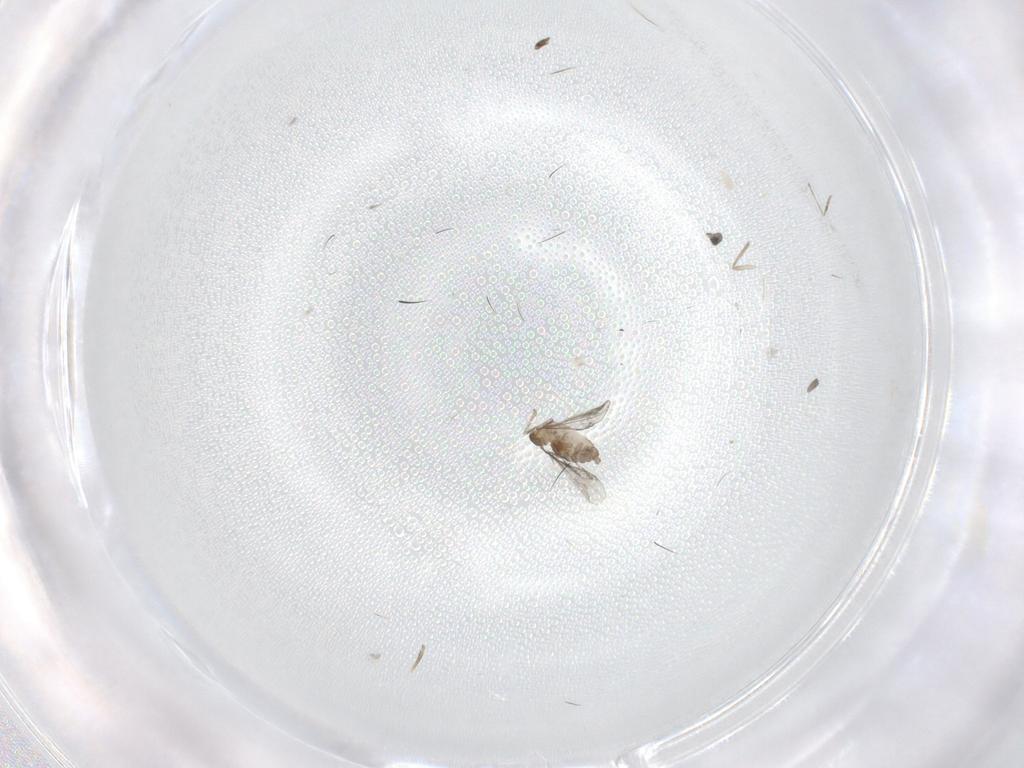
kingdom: Animalia
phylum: Arthropoda
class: Insecta
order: Diptera
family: Cecidomyiidae
